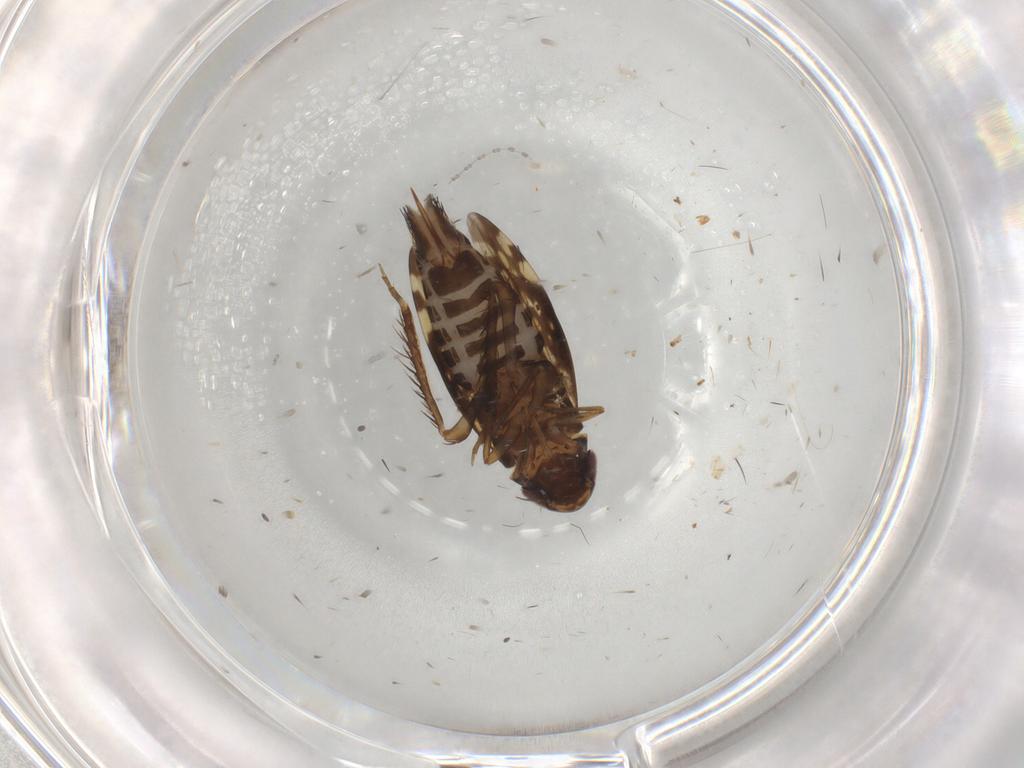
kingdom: Animalia
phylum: Arthropoda
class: Insecta
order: Hemiptera
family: Cicadellidae
